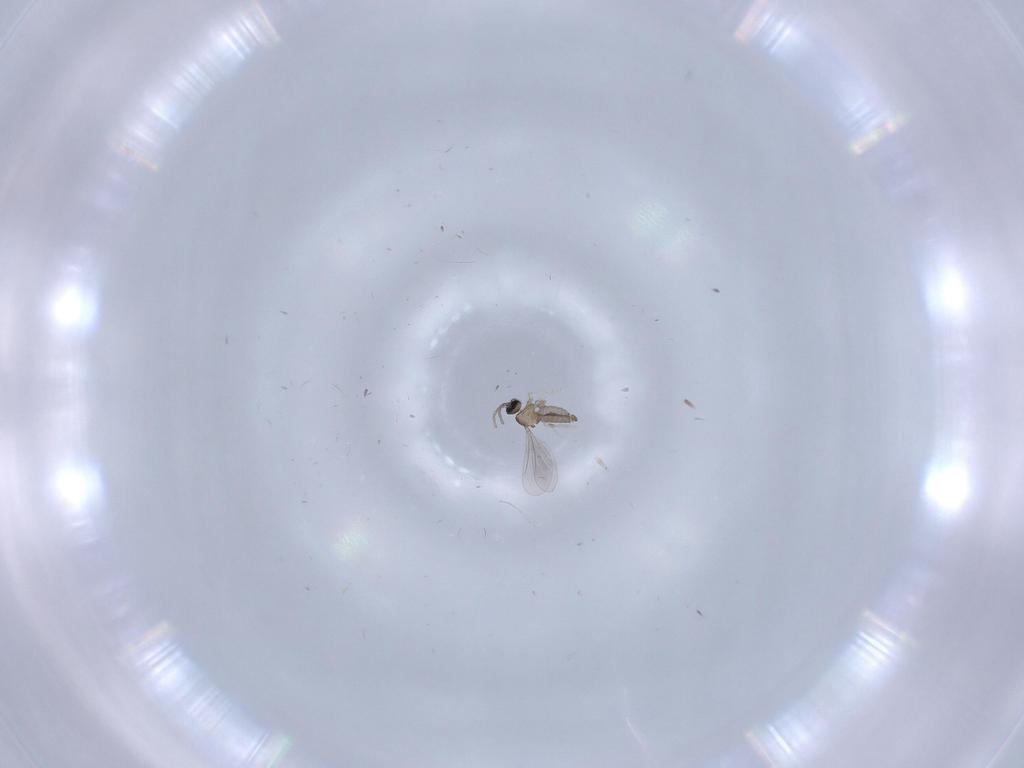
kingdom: Animalia
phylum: Arthropoda
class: Insecta
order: Diptera
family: Cecidomyiidae
